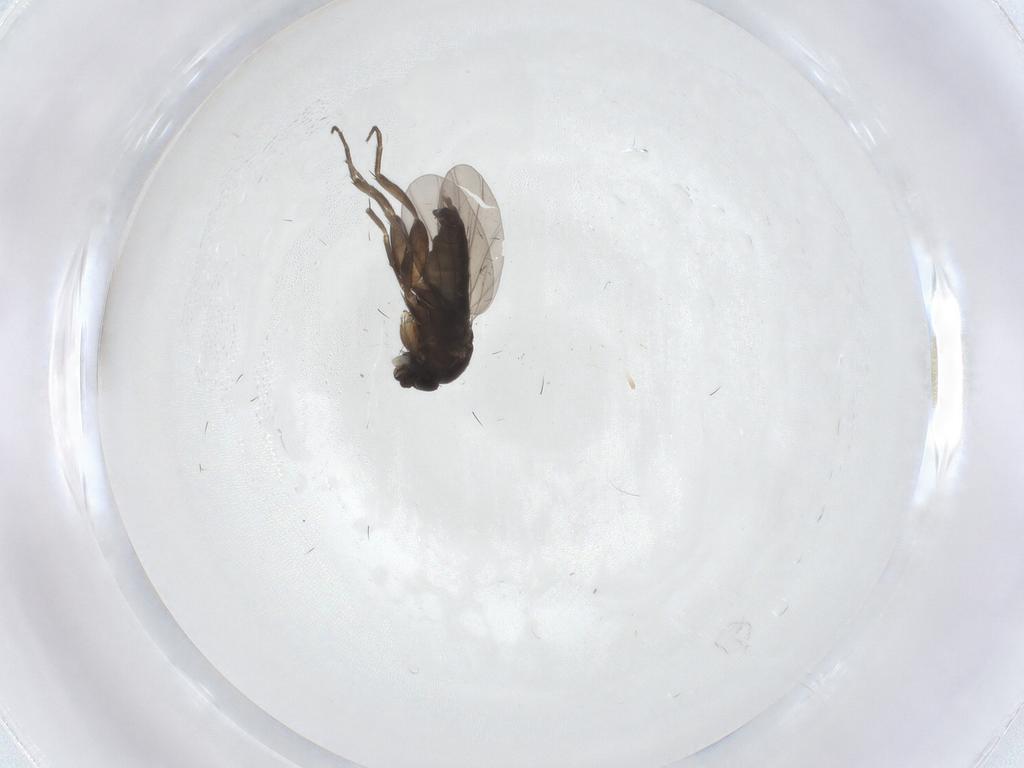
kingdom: Animalia
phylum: Arthropoda
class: Insecta
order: Diptera
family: Phoridae
